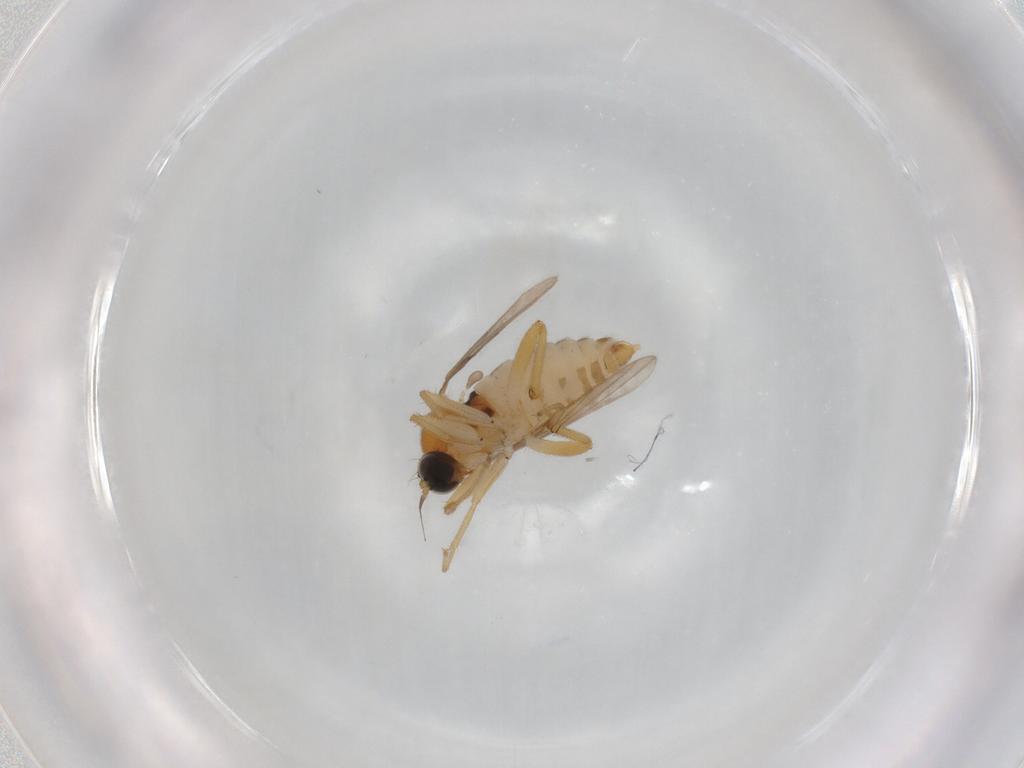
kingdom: Animalia
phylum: Arthropoda
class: Insecta
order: Diptera
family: Hybotidae
